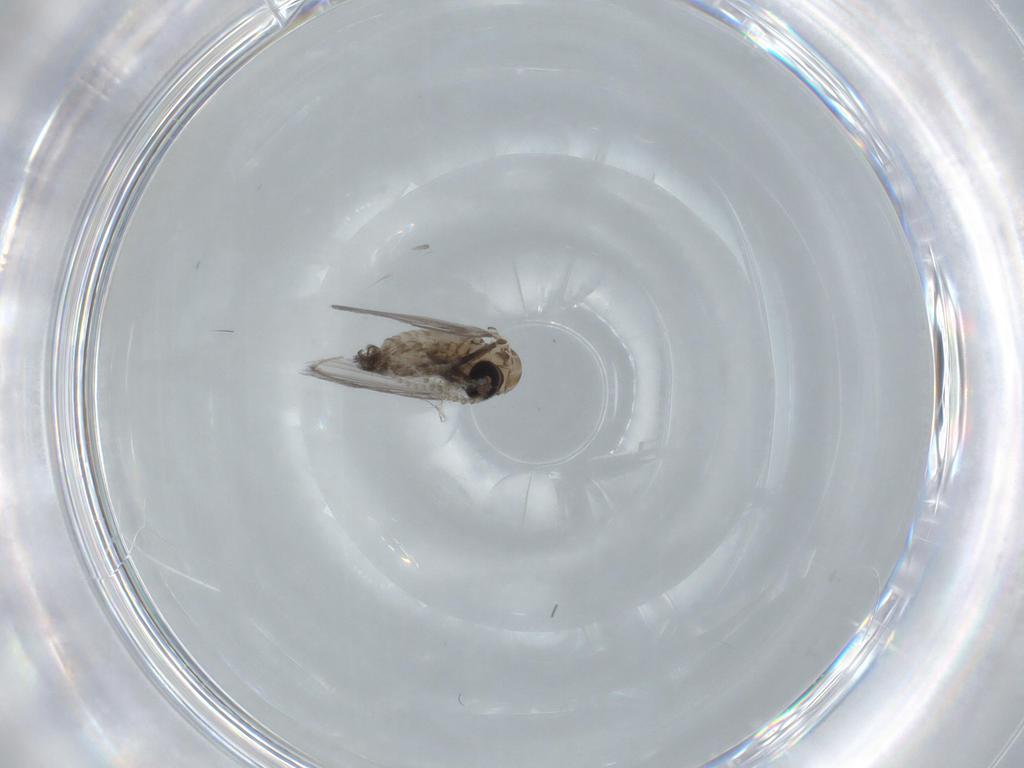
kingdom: Animalia
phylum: Arthropoda
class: Insecta
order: Diptera
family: Psychodidae
